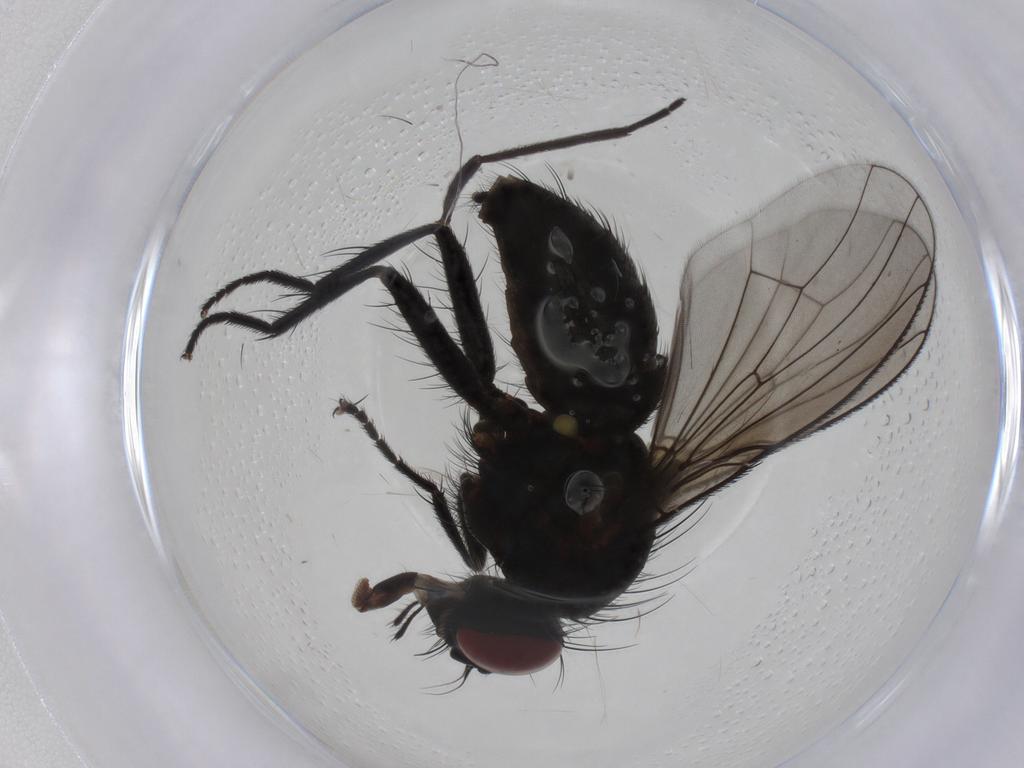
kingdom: Animalia
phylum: Arthropoda
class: Insecta
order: Diptera
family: Muscidae
